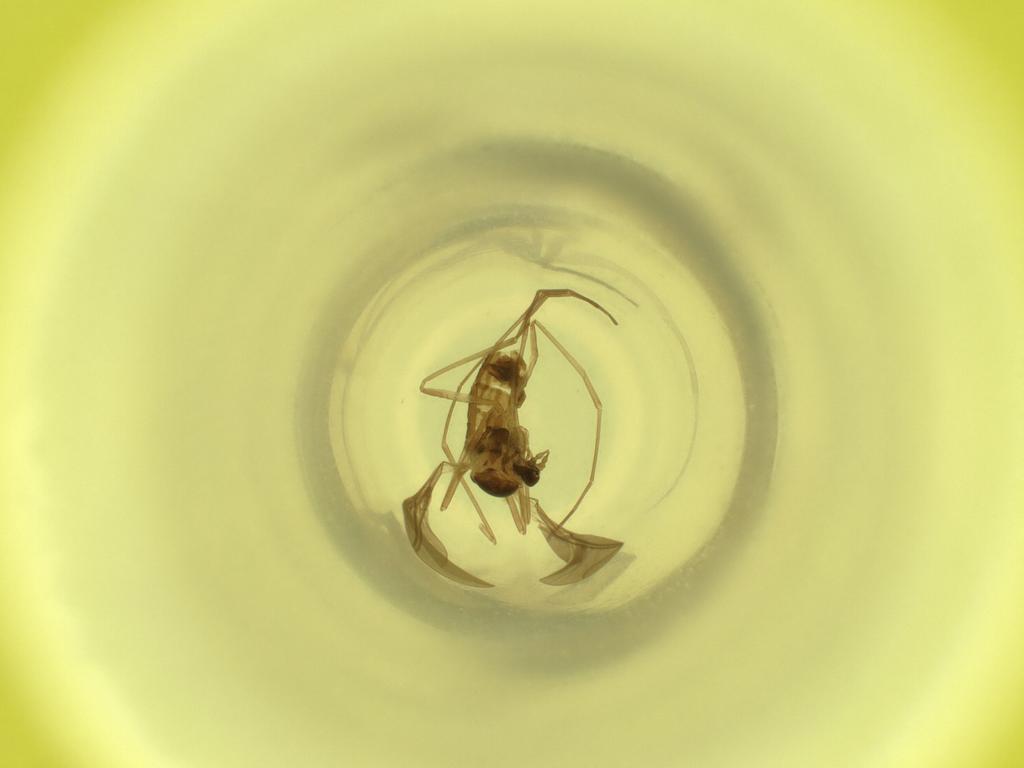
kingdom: Animalia
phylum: Arthropoda
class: Insecta
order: Diptera
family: Cecidomyiidae
